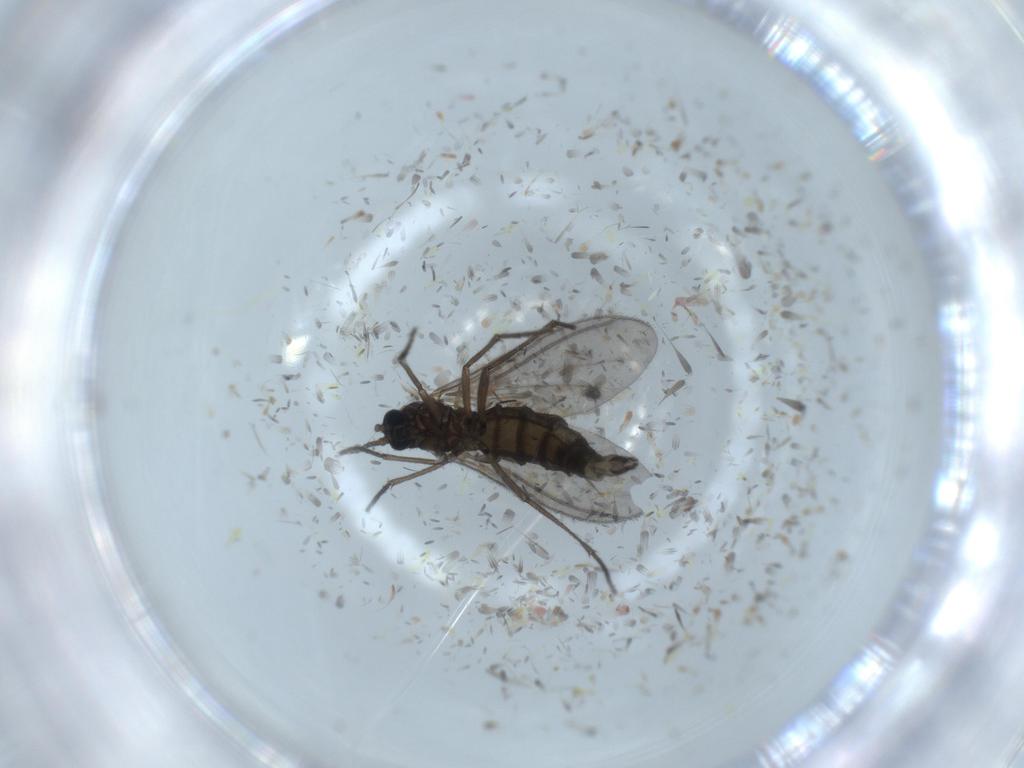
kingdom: Animalia
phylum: Arthropoda
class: Insecta
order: Diptera
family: Sciaridae
